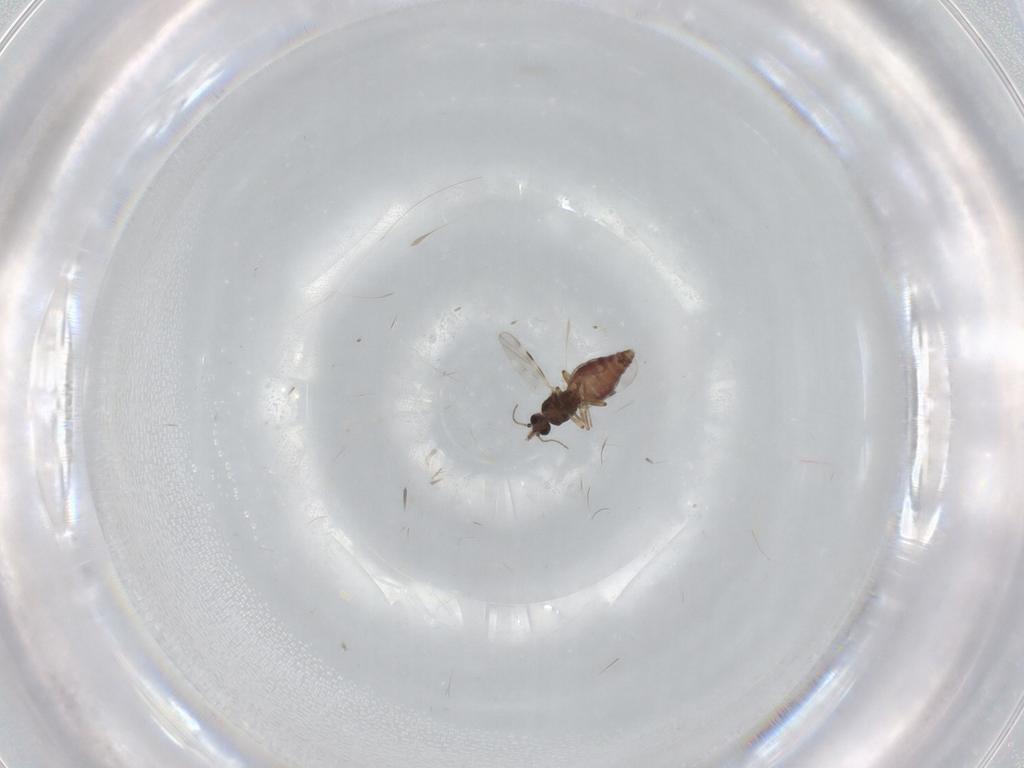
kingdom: Animalia
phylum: Arthropoda
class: Insecta
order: Diptera
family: Cecidomyiidae
